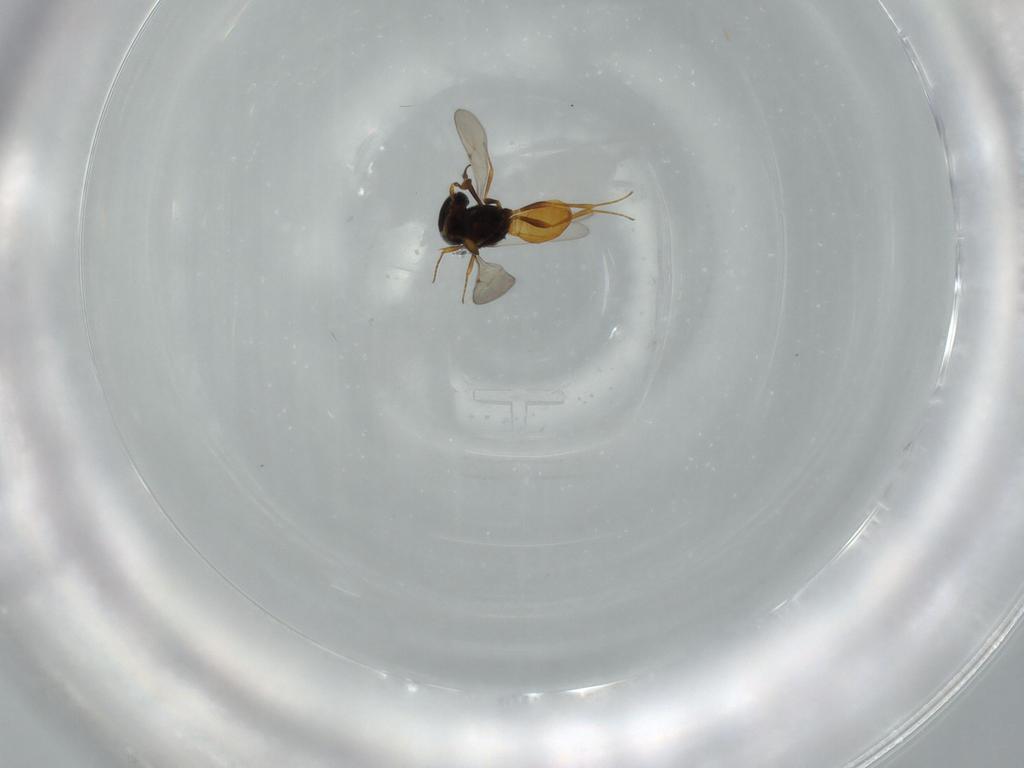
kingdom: Animalia
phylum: Arthropoda
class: Insecta
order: Hymenoptera
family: Scelionidae
